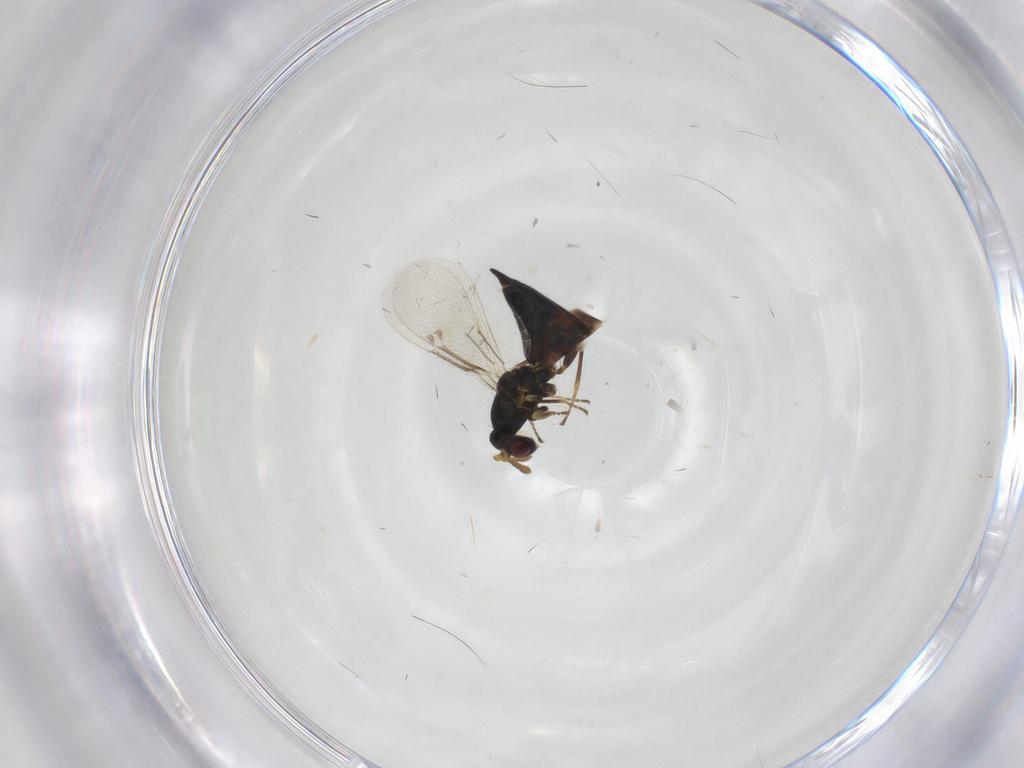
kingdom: Animalia
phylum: Arthropoda
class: Insecta
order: Hymenoptera
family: Eulophidae
